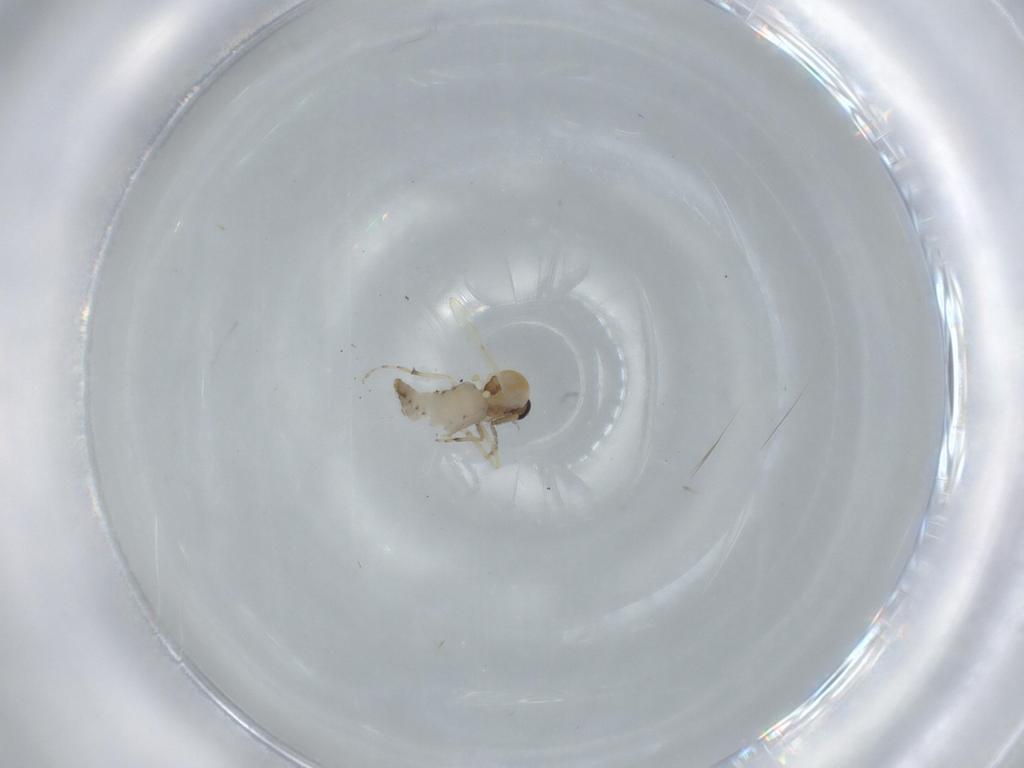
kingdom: Animalia
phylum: Arthropoda
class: Insecta
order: Diptera
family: Ceratopogonidae
